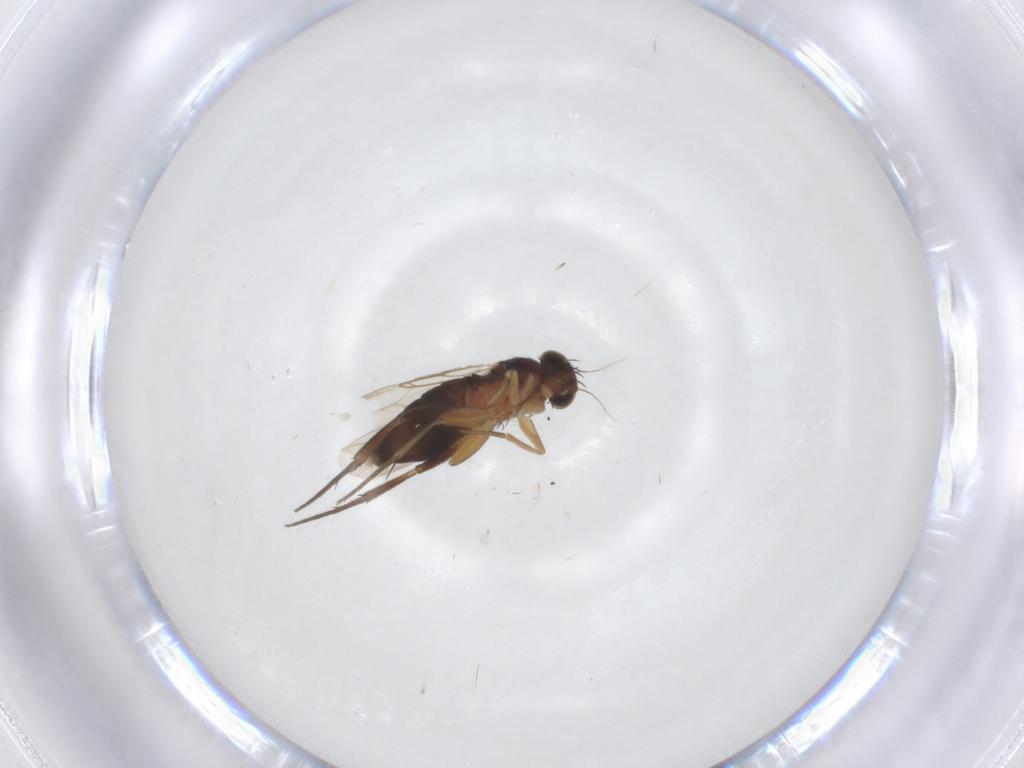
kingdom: Animalia
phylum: Arthropoda
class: Insecta
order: Diptera
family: Phoridae
